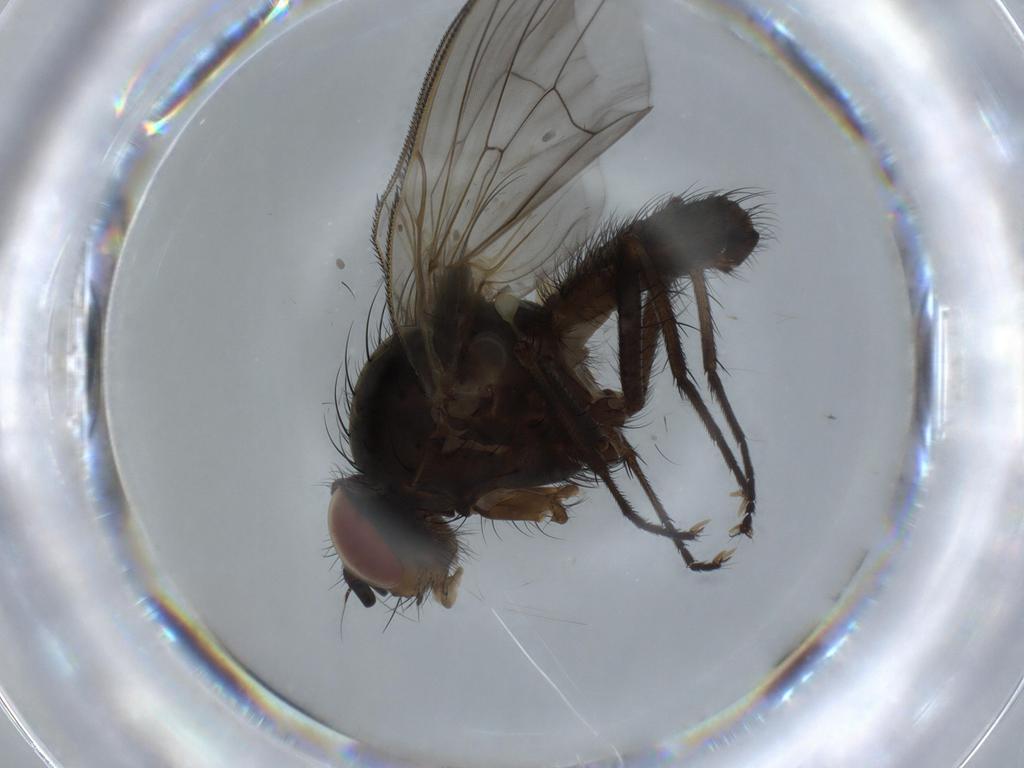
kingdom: Animalia
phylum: Arthropoda
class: Insecta
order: Diptera
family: Anthomyiidae
